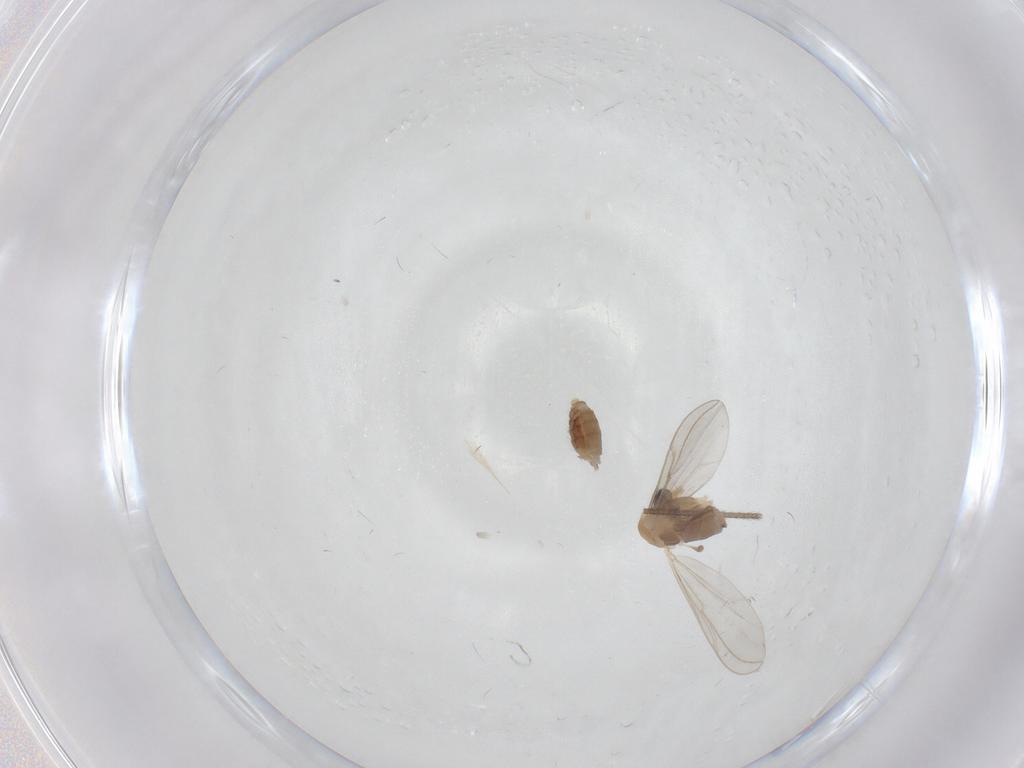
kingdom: Animalia
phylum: Arthropoda
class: Insecta
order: Diptera
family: Chironomidae
